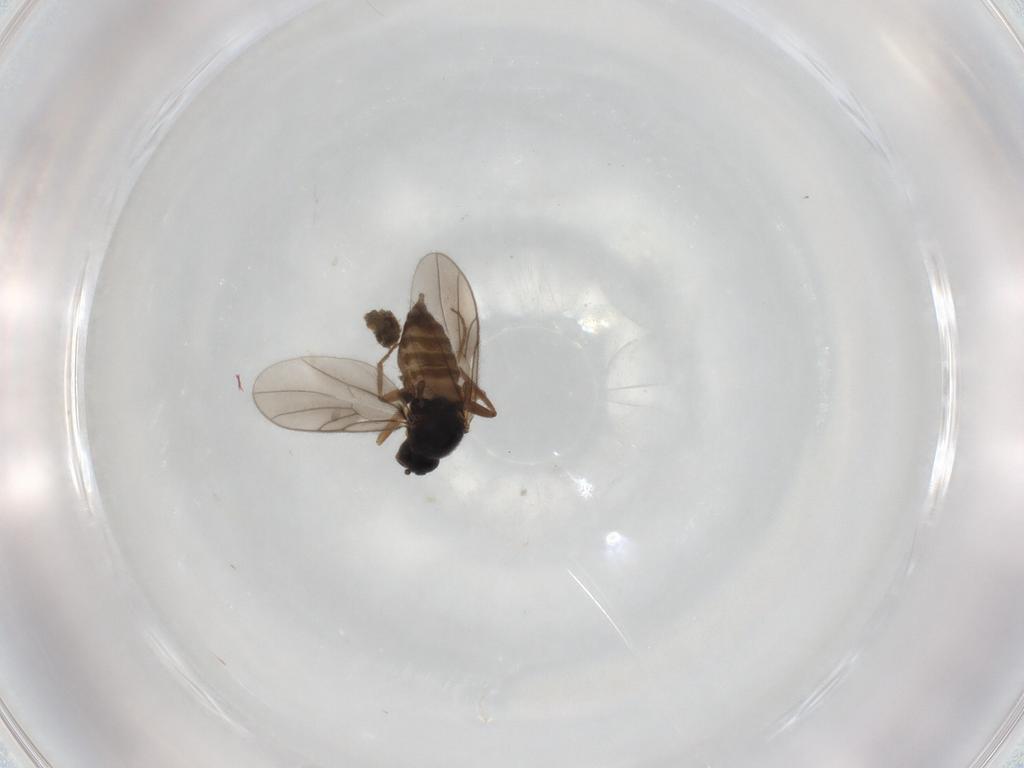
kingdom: Animalia
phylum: Arthropoda
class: Insecta
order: Diptera
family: Hybotidae
